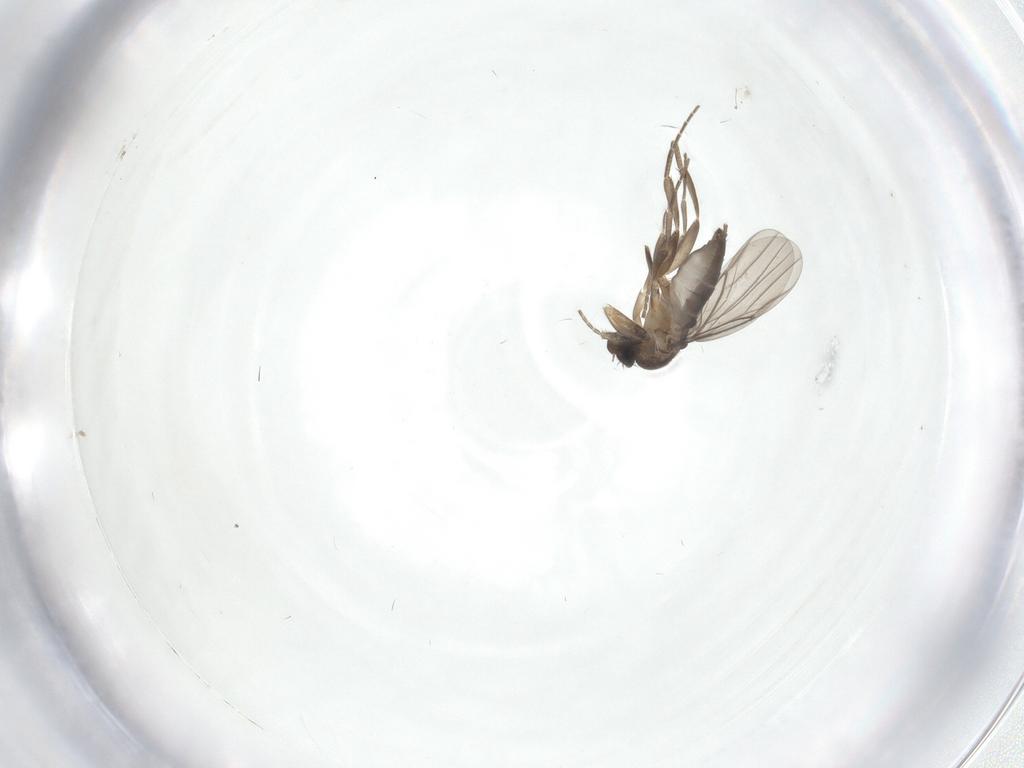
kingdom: Animalia
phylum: Arthropoda
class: Insecta
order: Diptera
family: Phoridae
